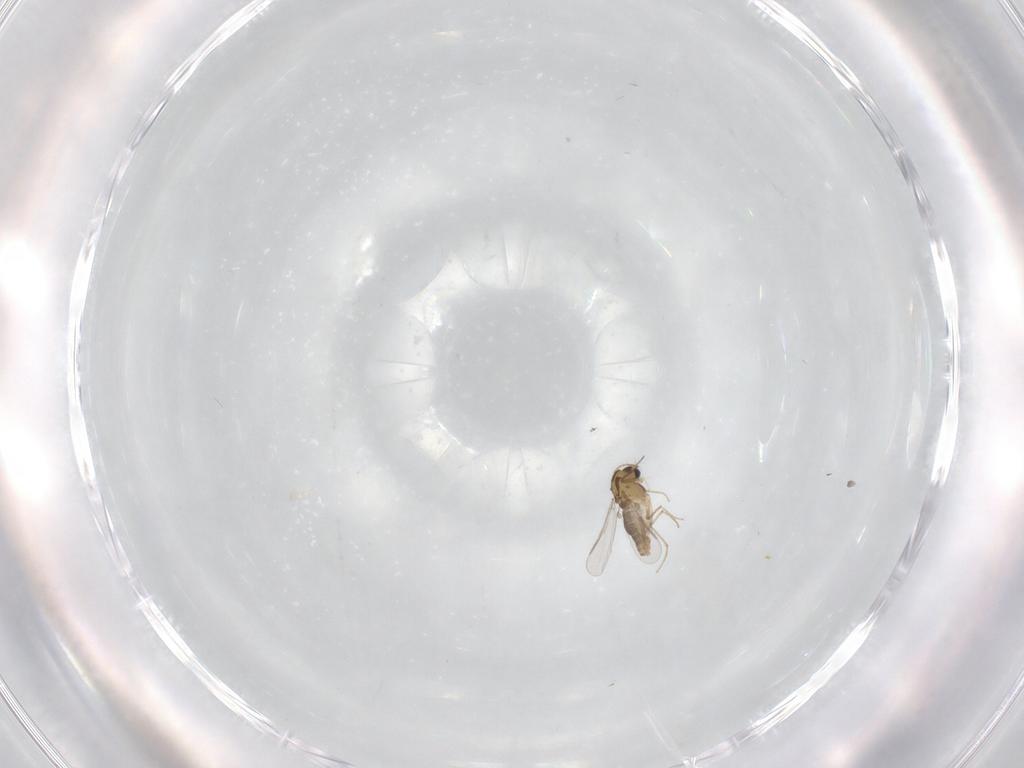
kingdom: Animalia
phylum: Arthropoda
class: Insecta
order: Diptera
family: Chironomidae
